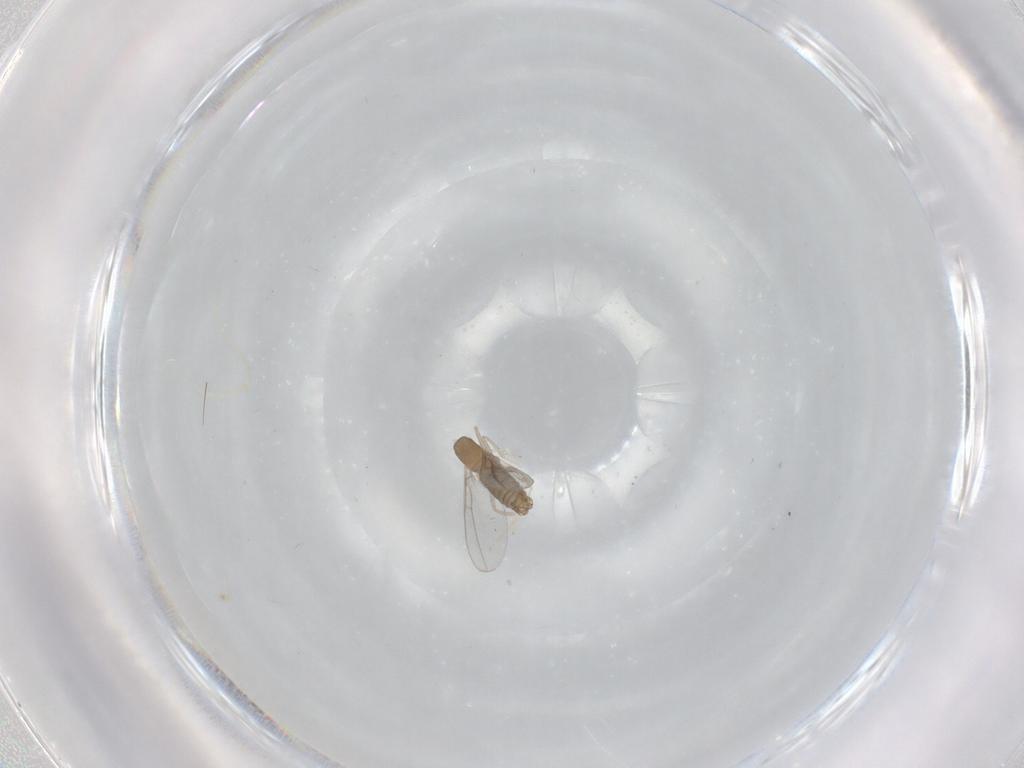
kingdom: Animalia
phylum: Arthropoda
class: Insecta
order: Diptera
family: Cecidomyiidae
